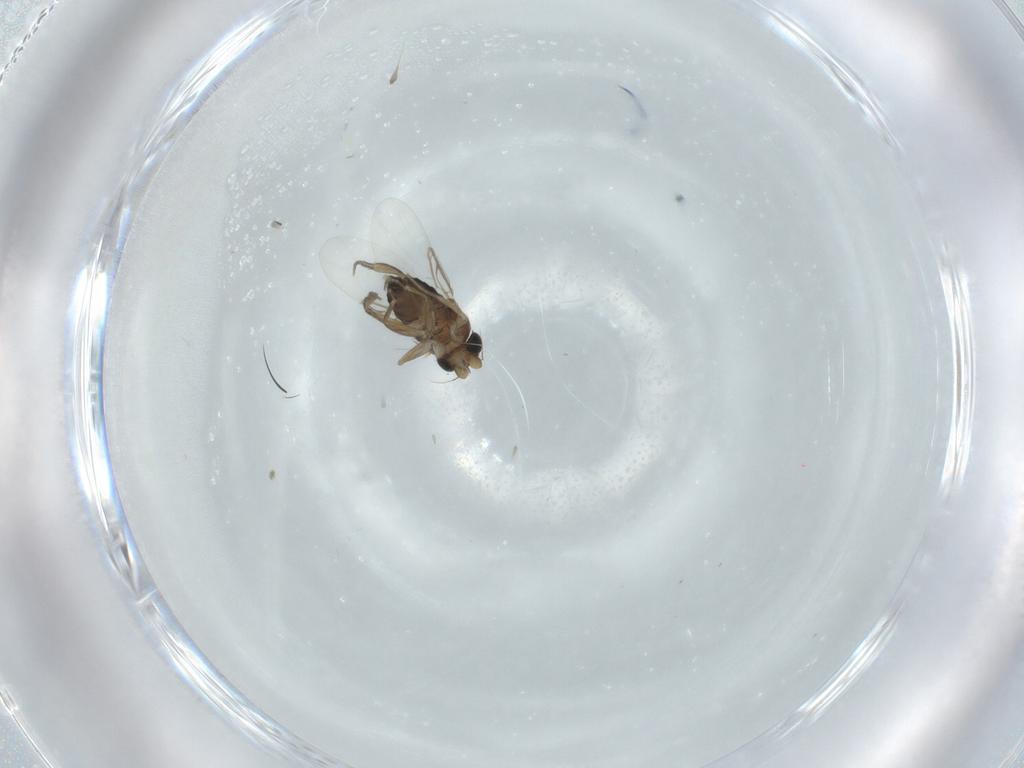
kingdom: Animalia
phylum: Arthropoda
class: Insecta
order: Diptera
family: Phoridae
